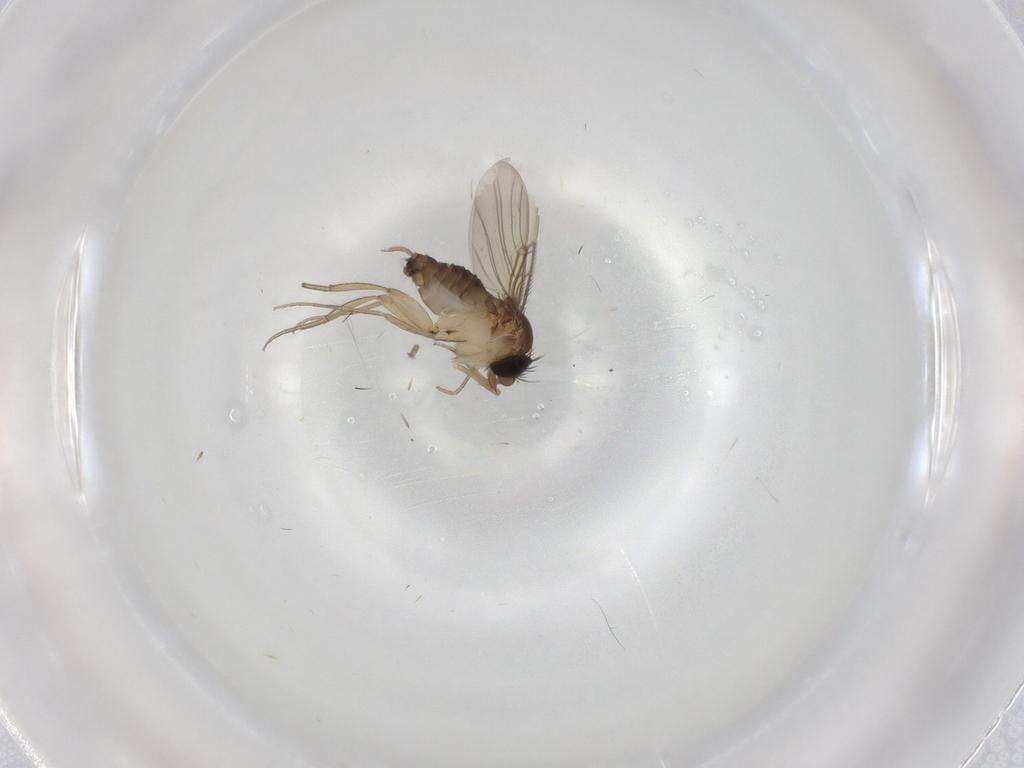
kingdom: Animalia
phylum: Arthropoda
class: Insecta
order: Diptera
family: Phoridae
